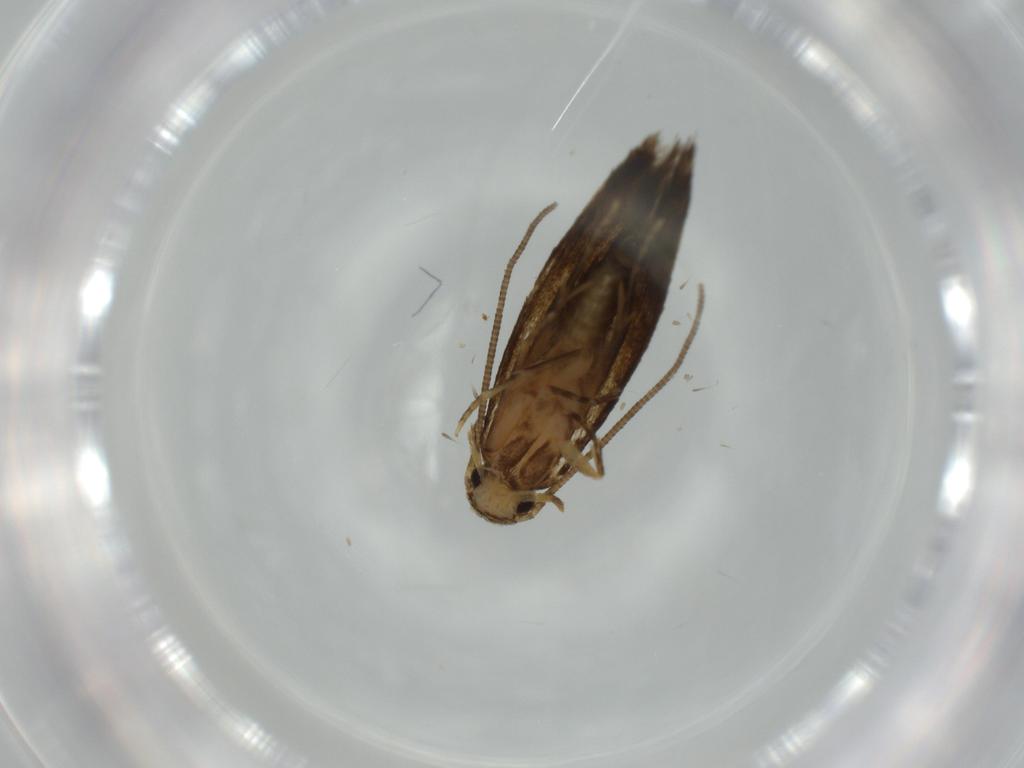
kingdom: Animalia
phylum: Arthropoda
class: Insecta
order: Lepidoptera
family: Tineidae
